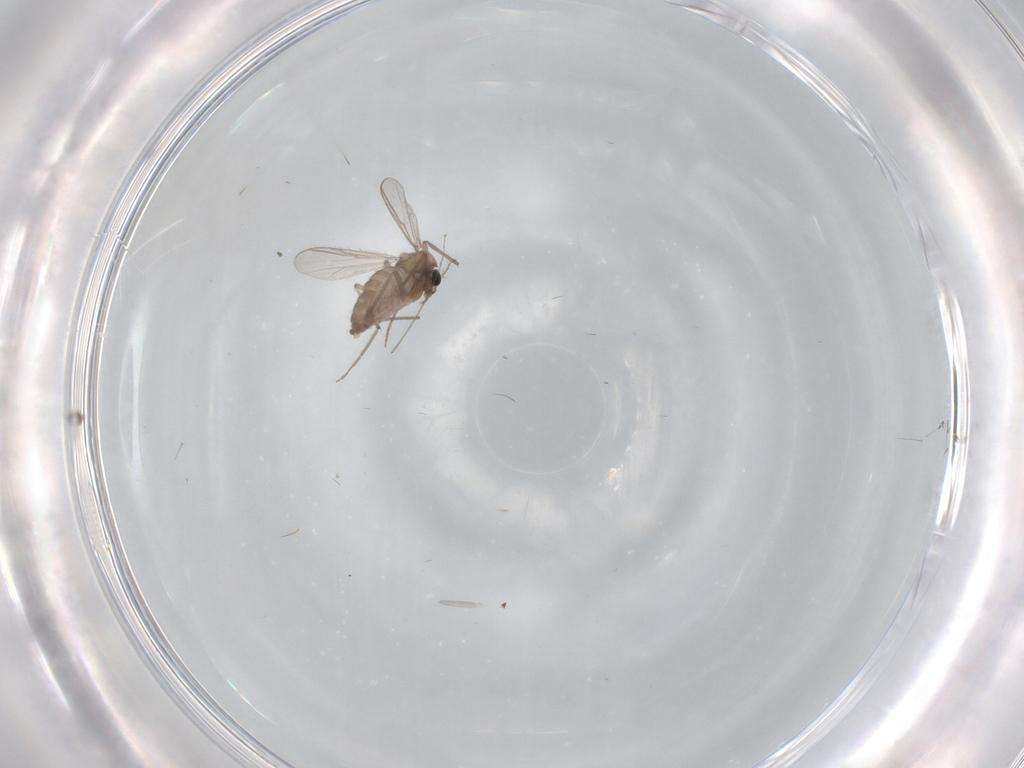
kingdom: Animalia
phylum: Arthropoda
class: Insecta
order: Diptera
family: Chironomidae
